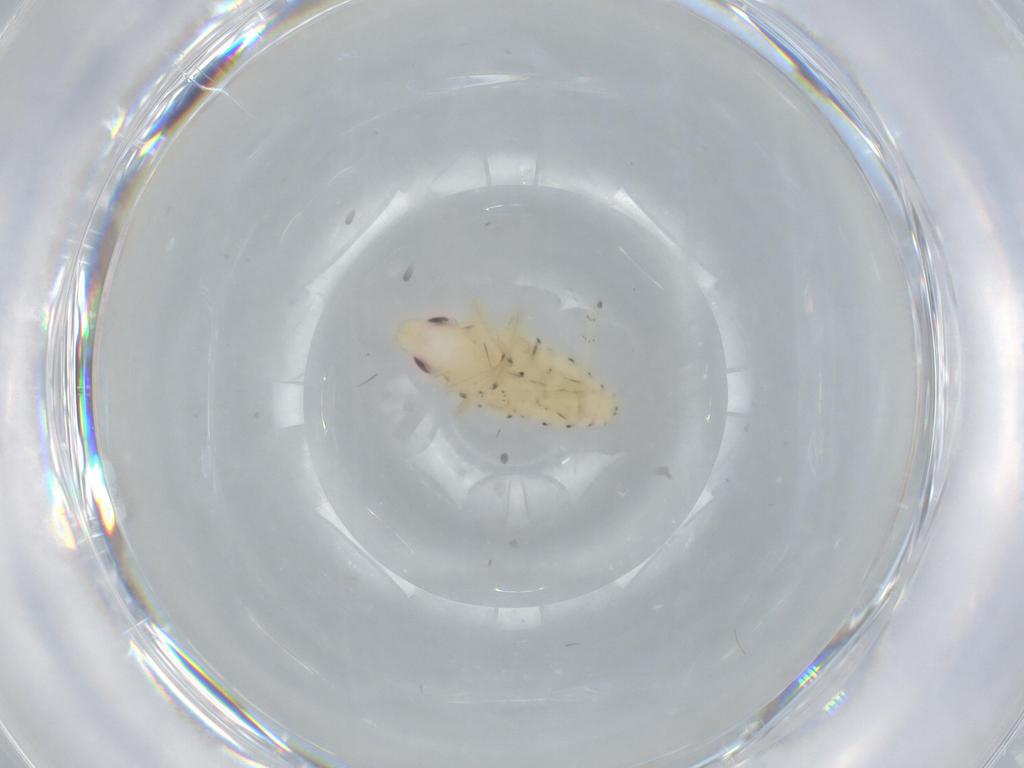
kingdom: Animalia
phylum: Arthropoda
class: Insecta
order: Hemiptera
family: Tropiduchidae
